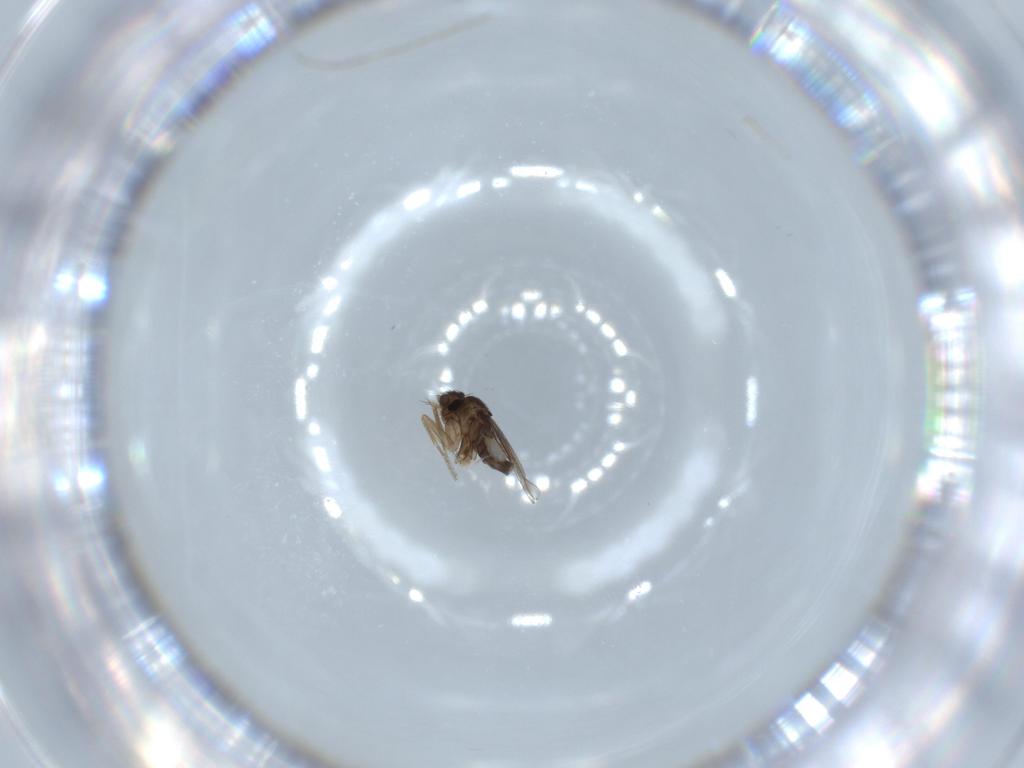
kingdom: Animalia
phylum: Arthropoda
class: Insecta
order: Diptera
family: Phoridae
